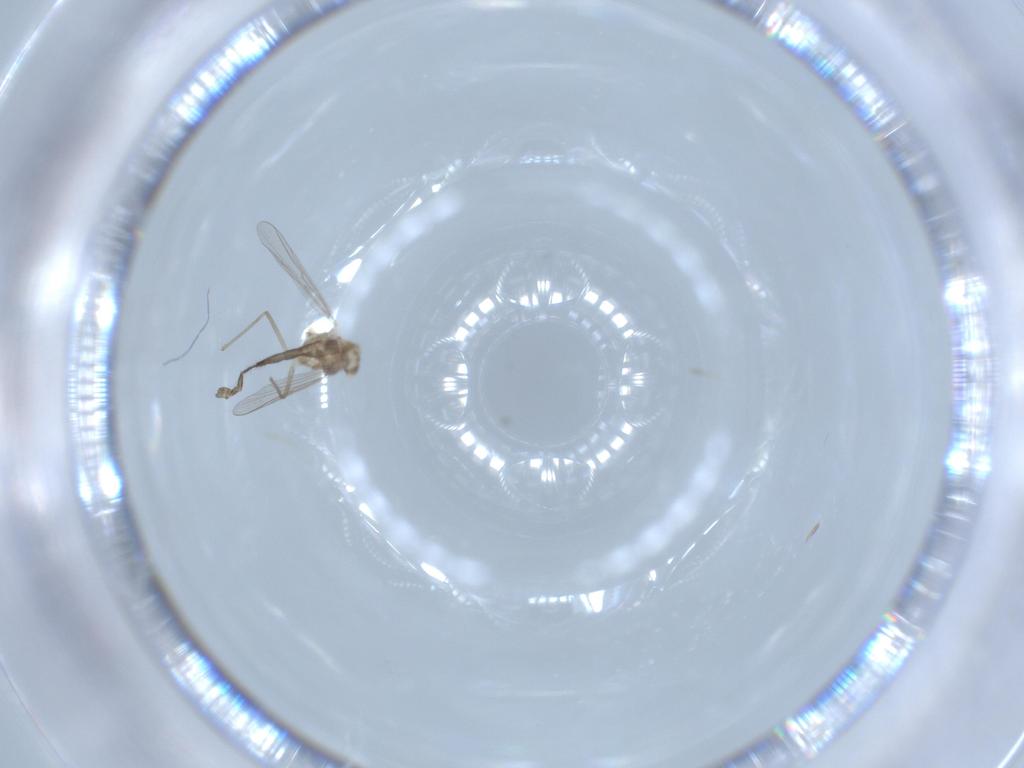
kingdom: Animalia
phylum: Arthropoda
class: Insecta
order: Diptera
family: Chironomidae
